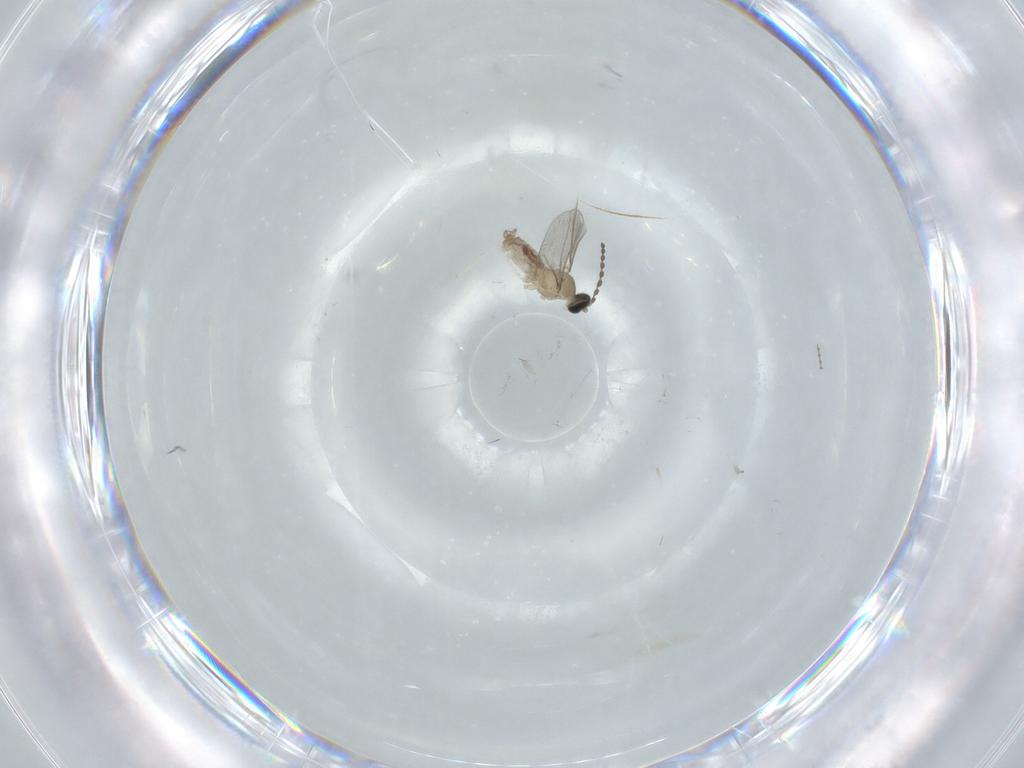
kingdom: Animalia
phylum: Arthropoda
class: Insecta
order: Diptera
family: Cecidomyiidae
